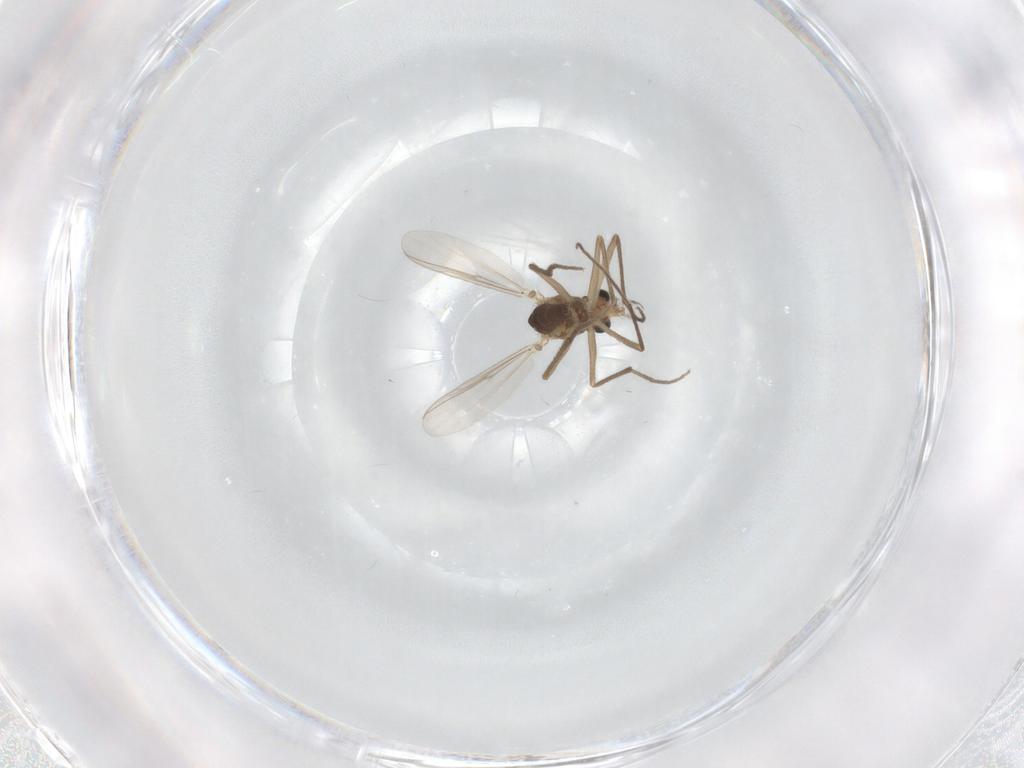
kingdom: Animalia
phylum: Arthropoda
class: Insecta
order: Diptera
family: Chironomidae
